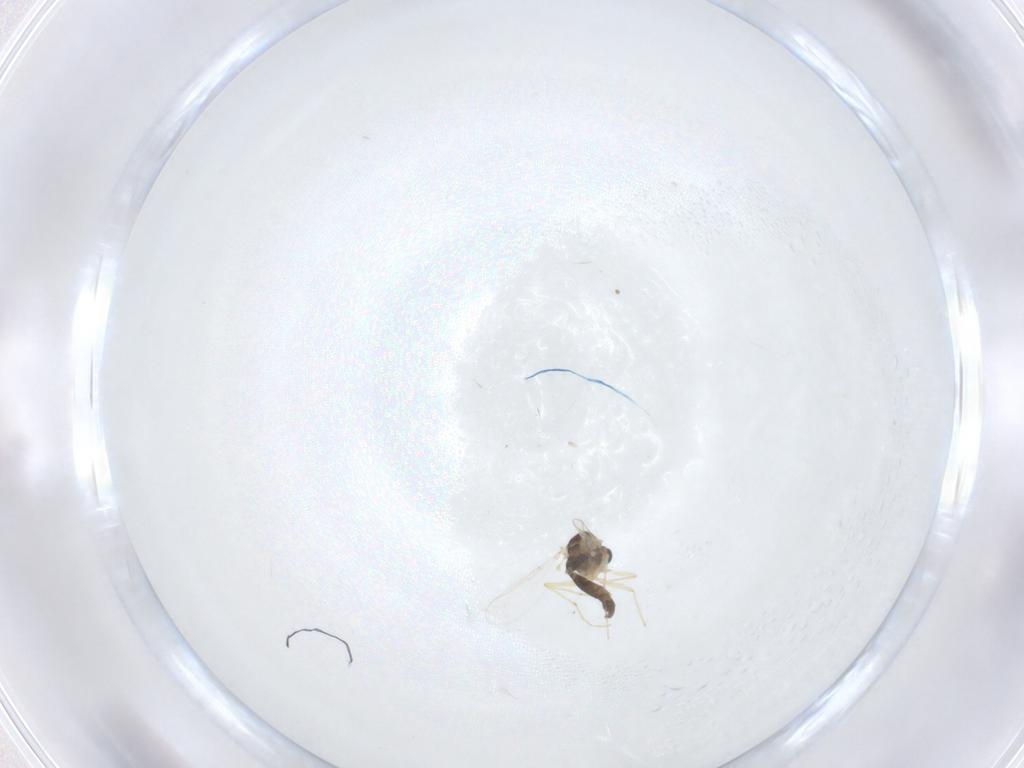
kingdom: Animalia
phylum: Arthropoda
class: Insecta
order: Diptera
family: Chironomidae
